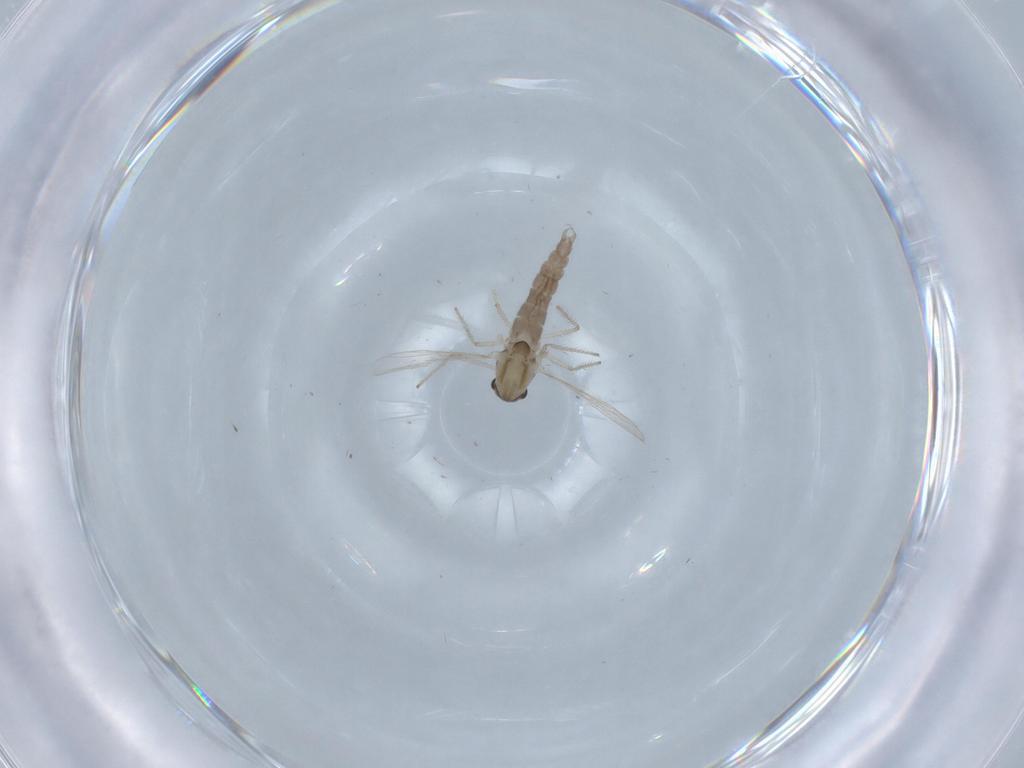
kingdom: Animalia
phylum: Arthropoda
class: Insecta
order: Diptera
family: Chironomidae
